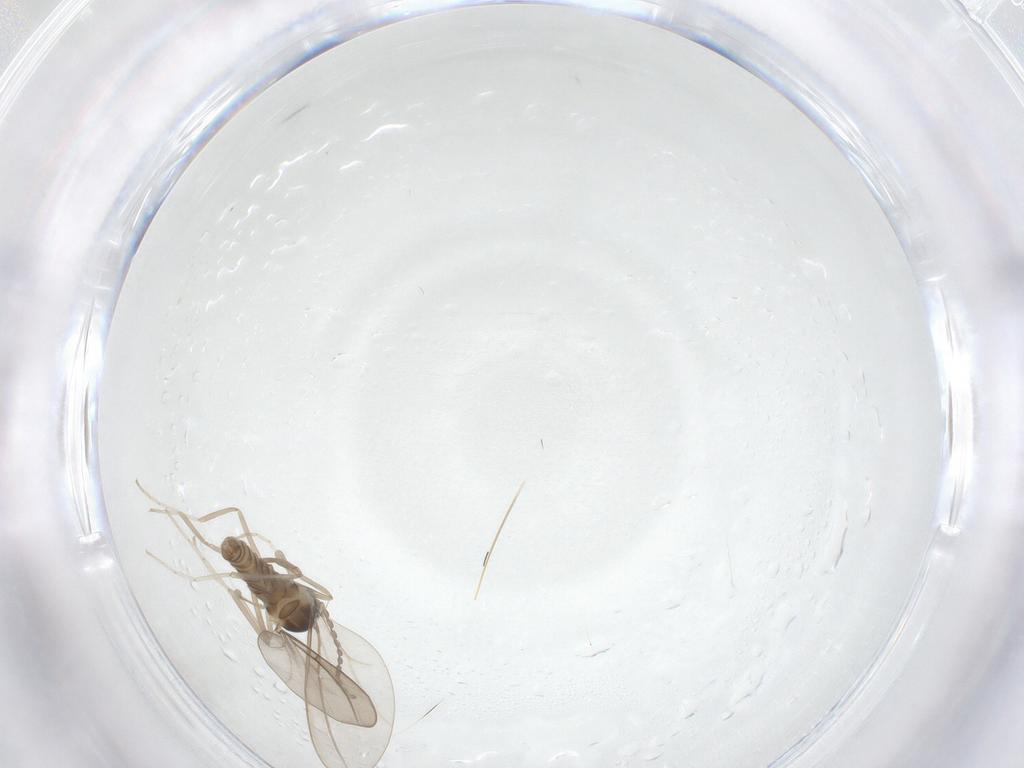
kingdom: Animalia
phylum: Arthropoda
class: Insecta
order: Diptera
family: Cecidomyiidae
